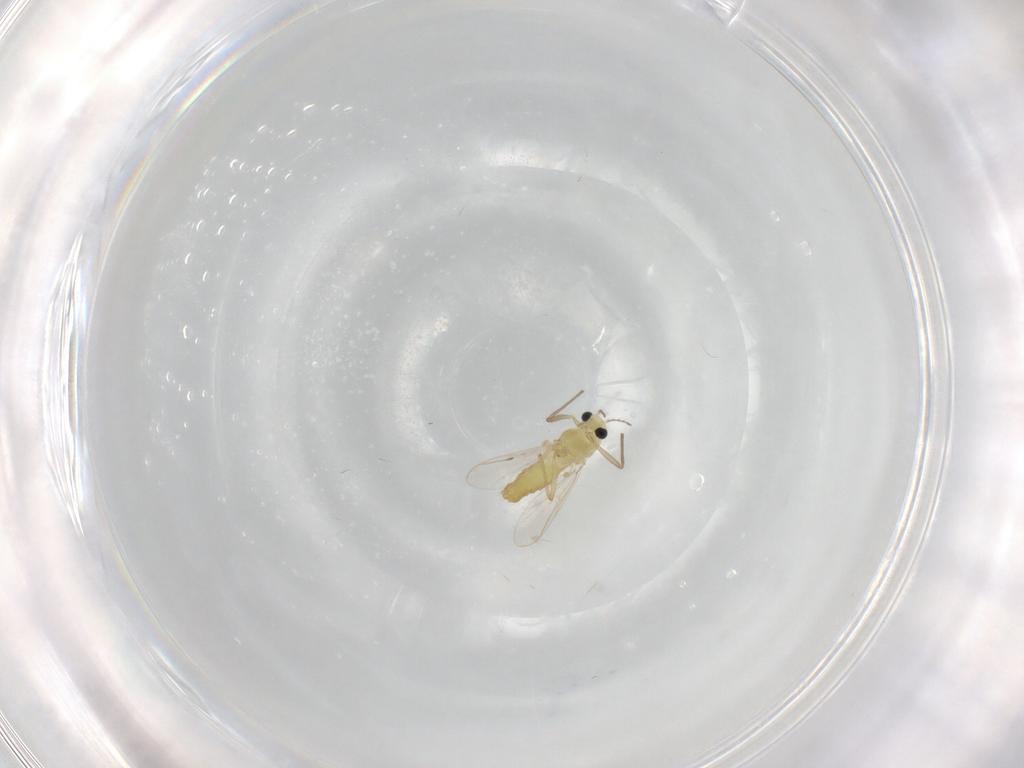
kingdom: Animalia
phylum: Arthropoda
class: Insecta
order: Diptera
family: Chironomidae
